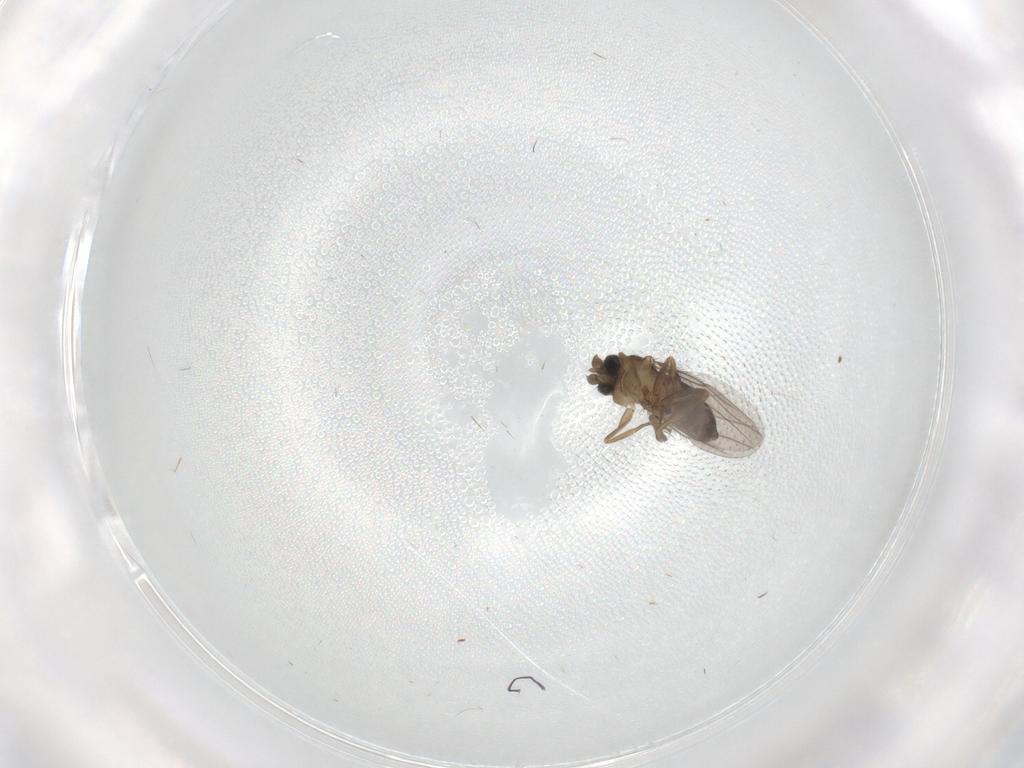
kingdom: Animalia
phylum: Arthropoda
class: Insecta
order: Diptera
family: Phoridae
